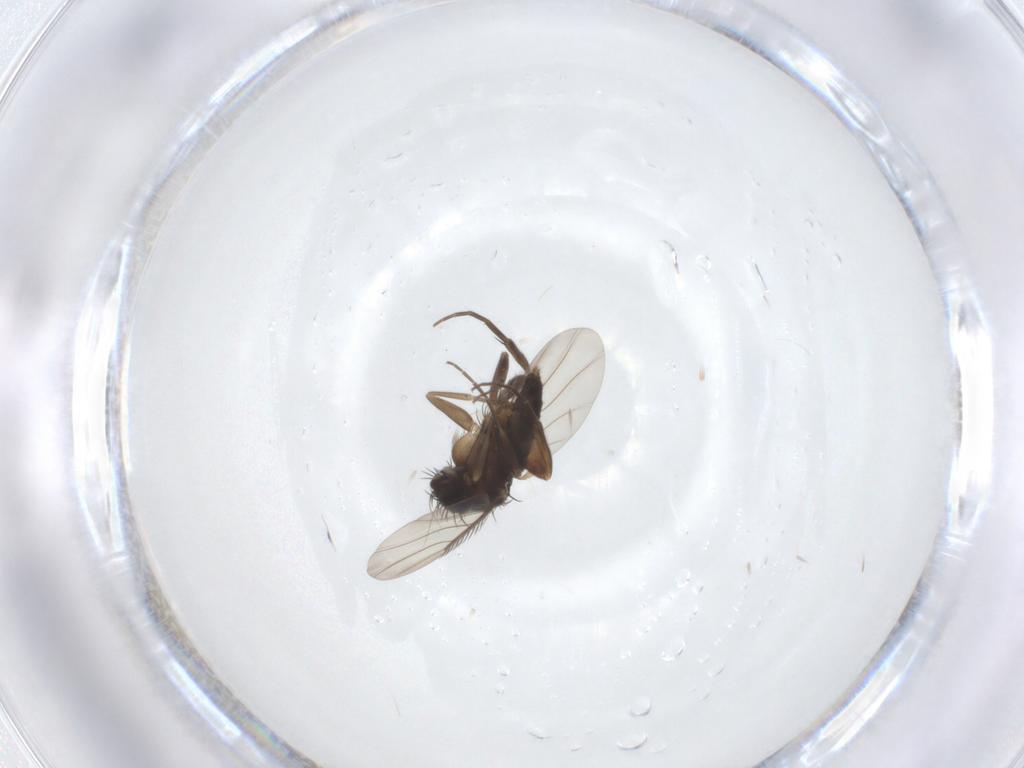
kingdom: Animalia
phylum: Arthropoda
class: Insecta
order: Diptera
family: Phoridae
